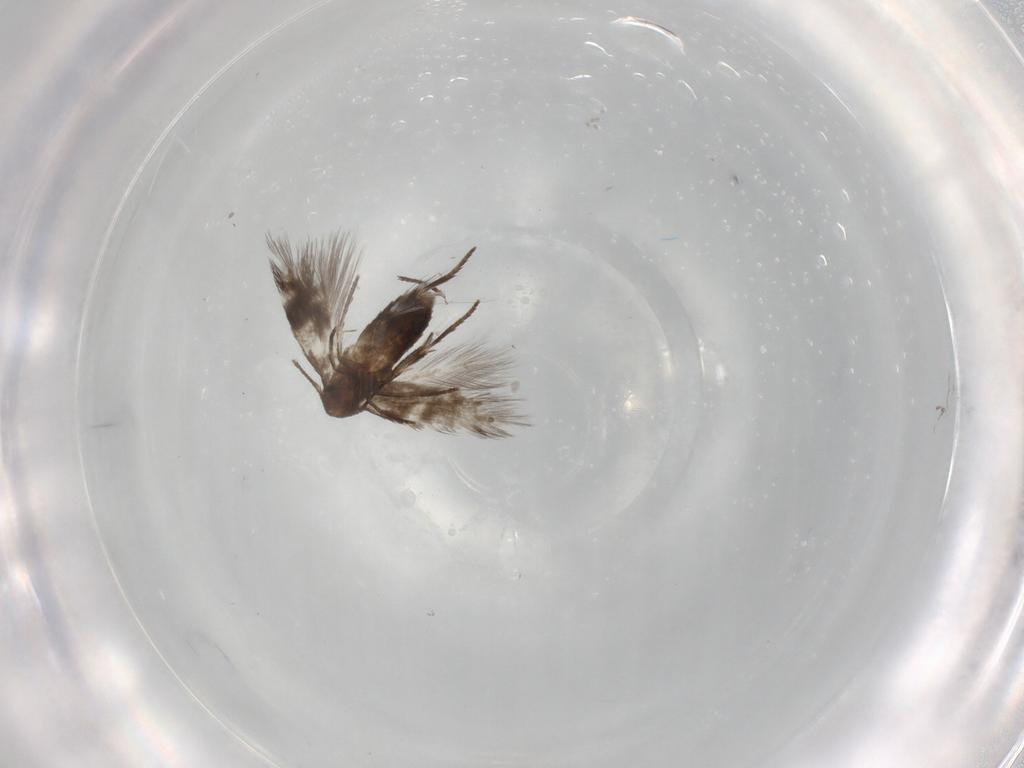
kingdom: Animalia
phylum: Arthropoda
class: Insecta
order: Lepidoptera
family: Lyonetiidae
